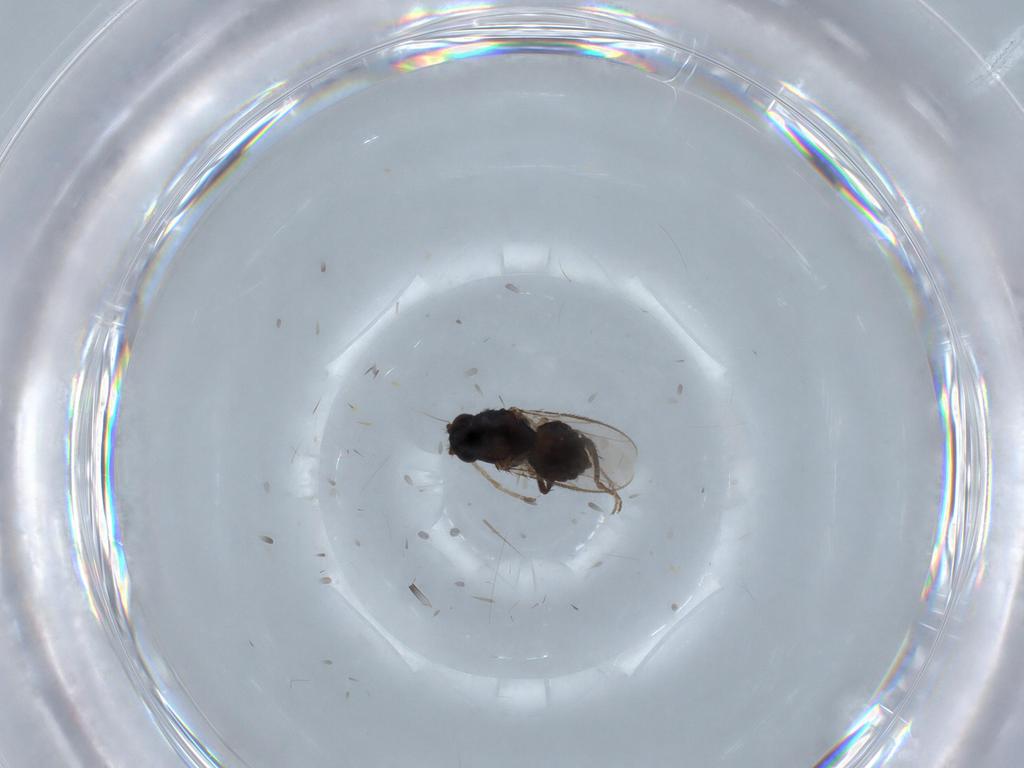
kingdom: Animalia
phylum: Arthropoda
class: Insecta
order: Diptera
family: Sphaeroceridae
